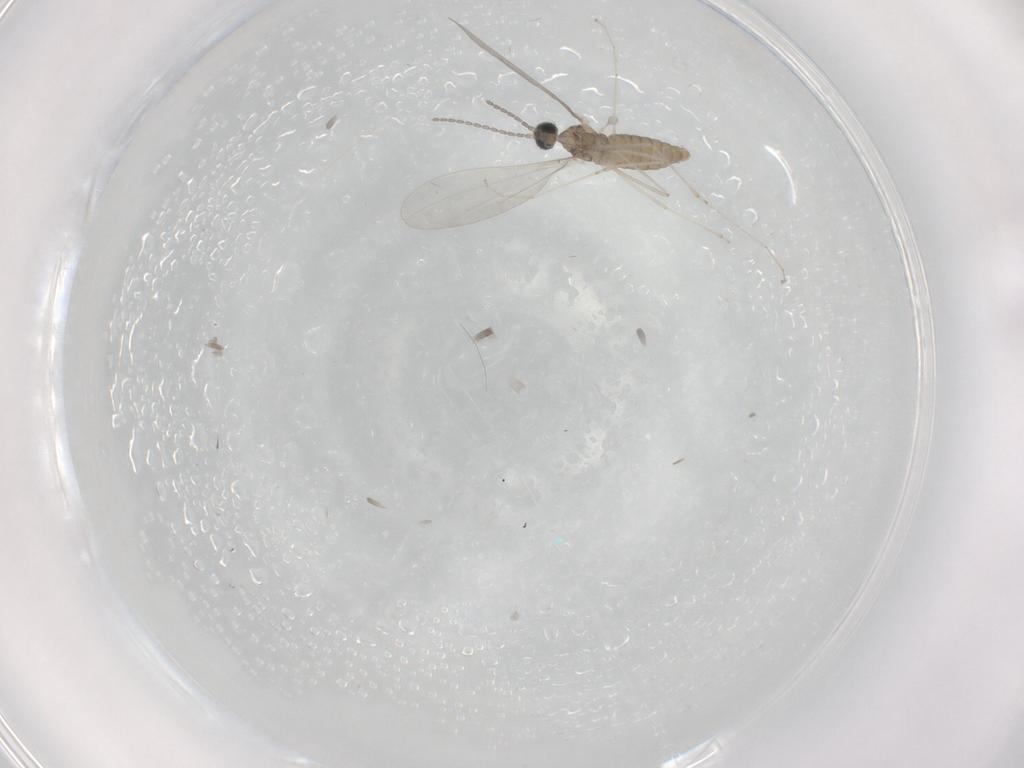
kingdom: Animalia
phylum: Arthropoda
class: Insecta
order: Diptera
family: Cecidomyiidae
